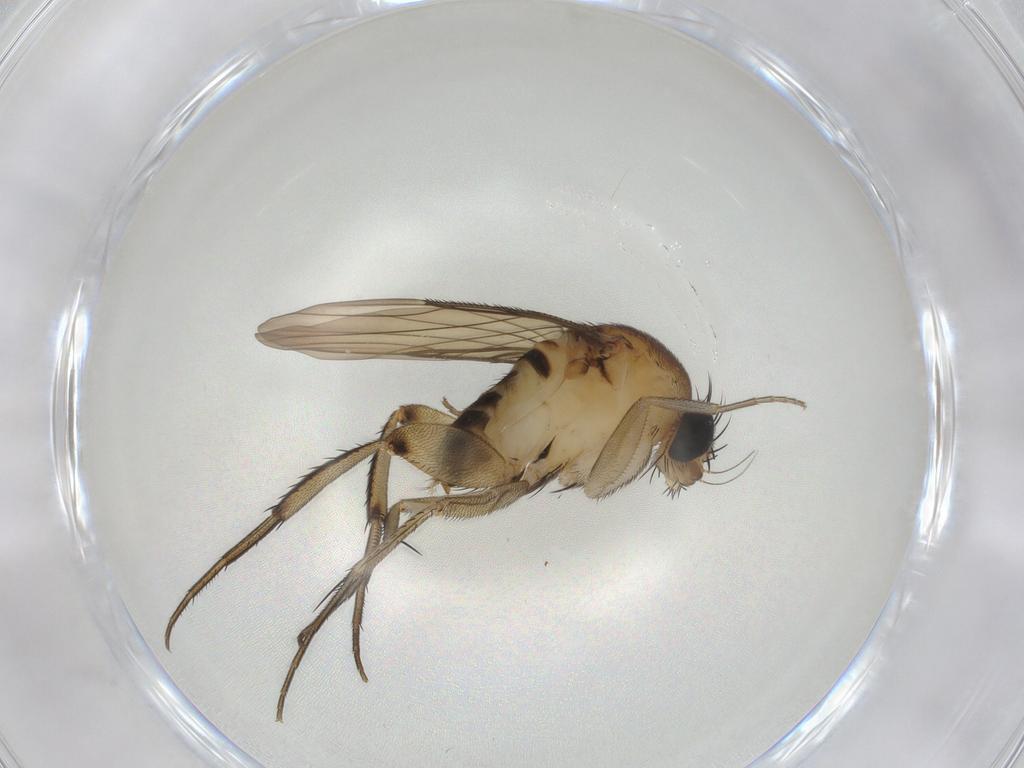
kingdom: Animalia
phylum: Arthropoda
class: Insecta
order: Diptera
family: Phoridae
